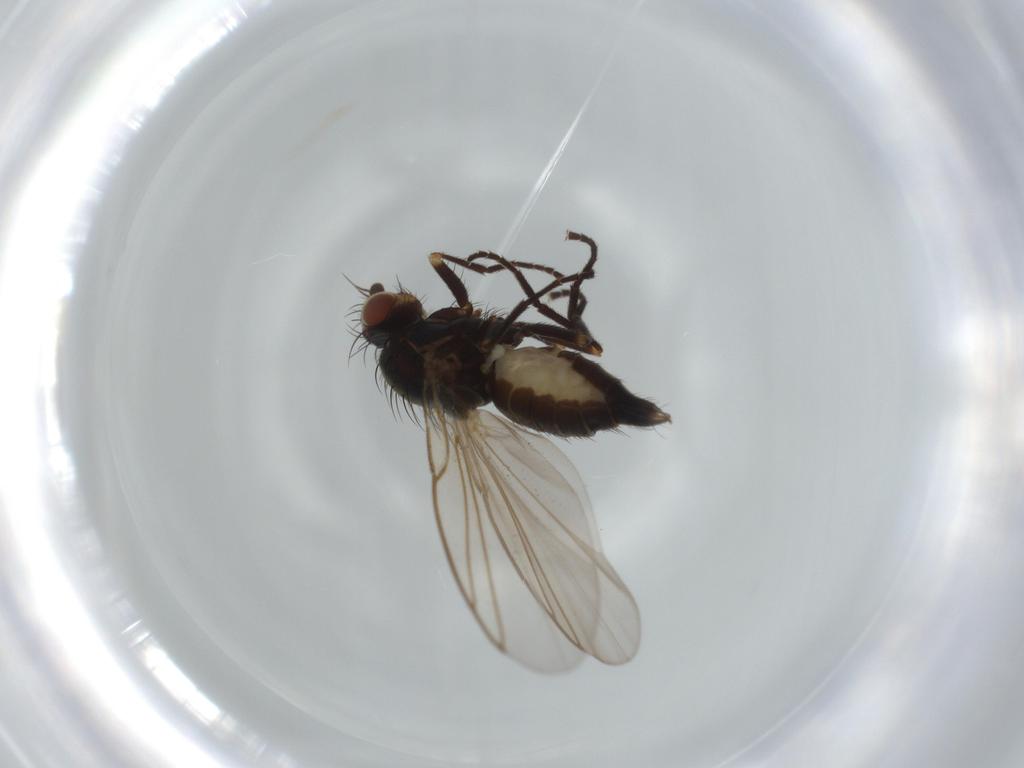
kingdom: Animalia
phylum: Arthropoda
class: Insecta
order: Diptera
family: Agromyzidae
